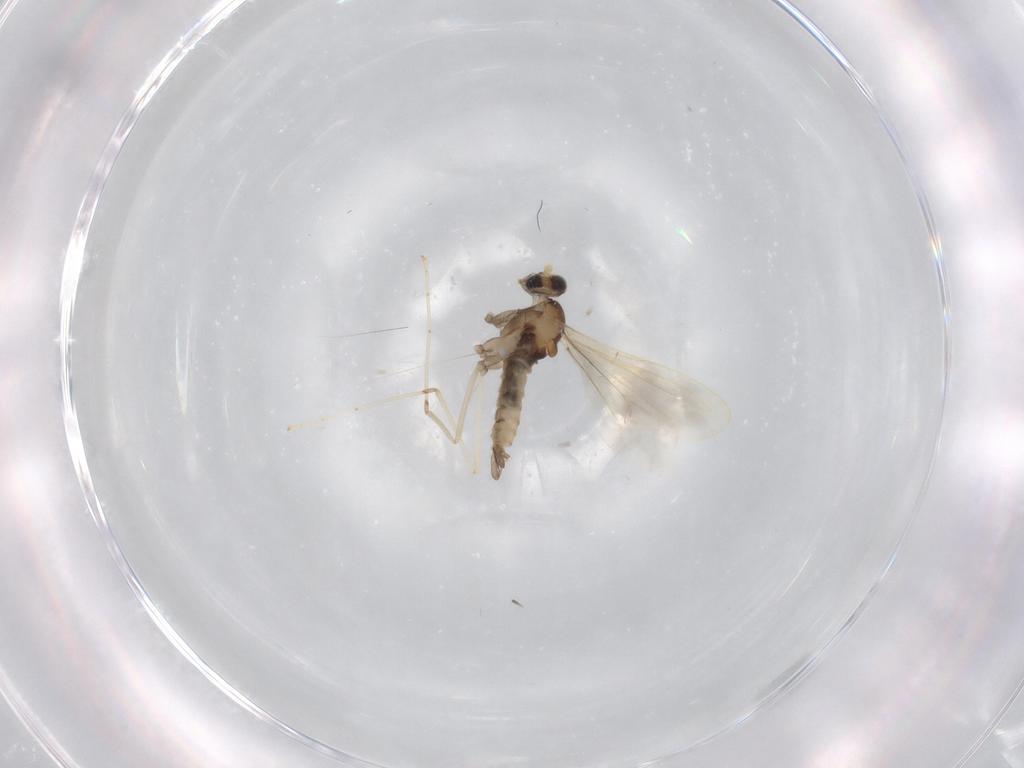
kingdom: Animalia
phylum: Arthropoda
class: Insecta
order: Diptera
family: Cecidomyiidae
